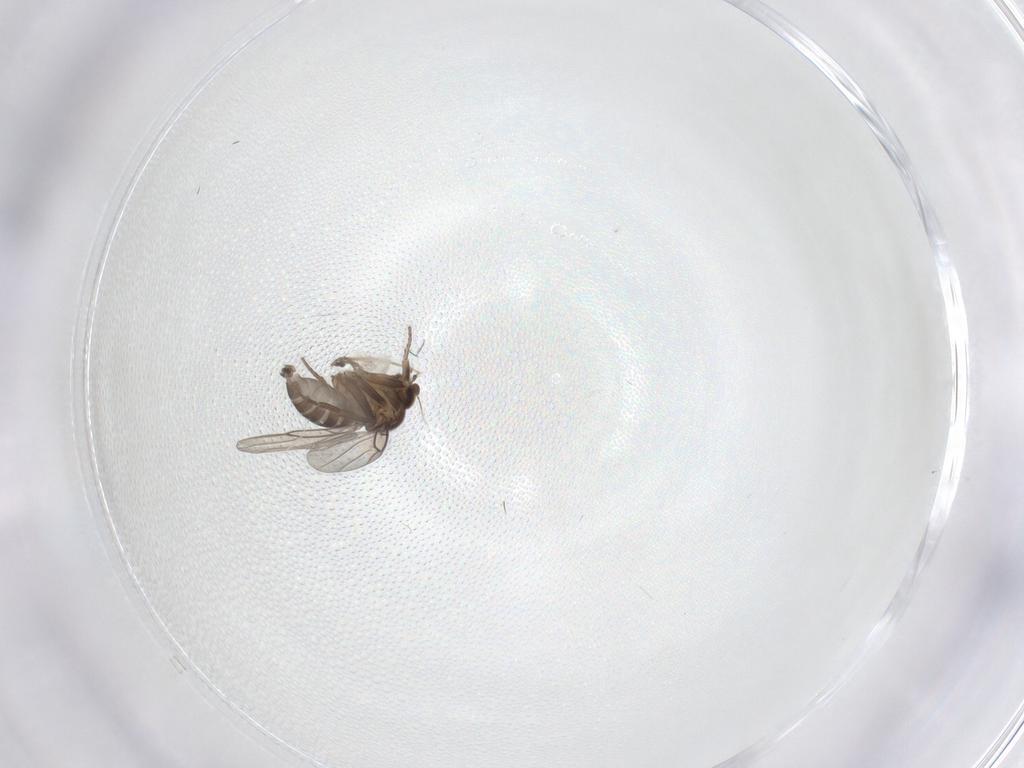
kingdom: Animalia
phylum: Arthropoda
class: Insecta
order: Diptera
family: Phoridae
